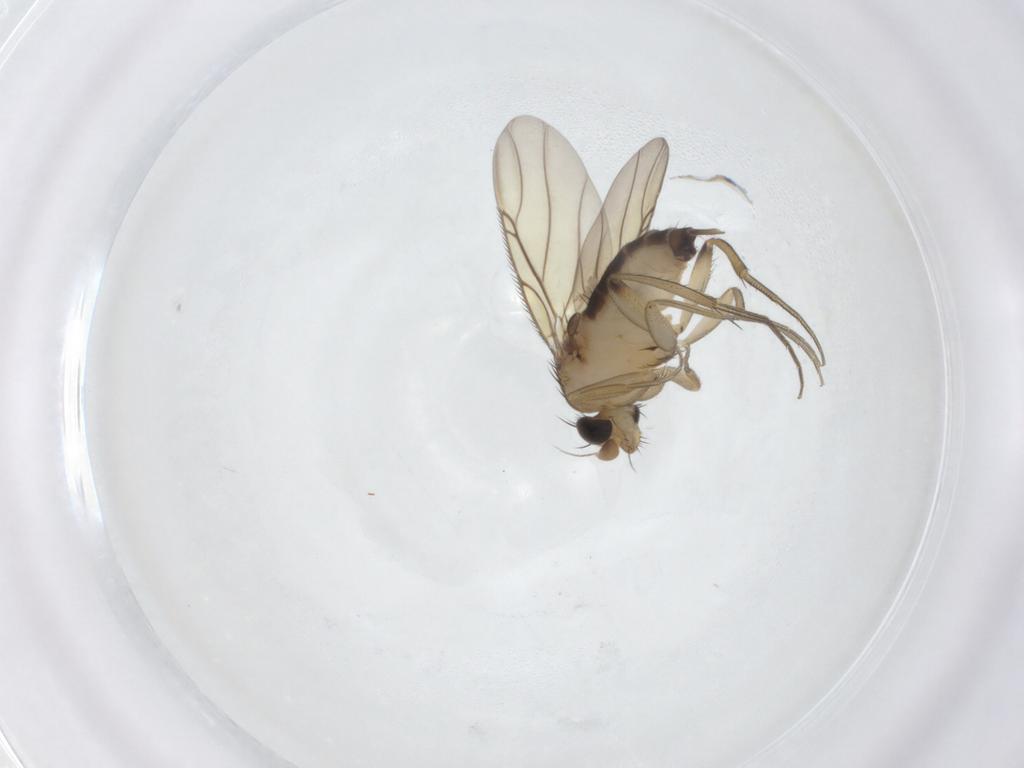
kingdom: Animalia
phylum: Arthropoda
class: Insecta
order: Diptera
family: Phoridae
